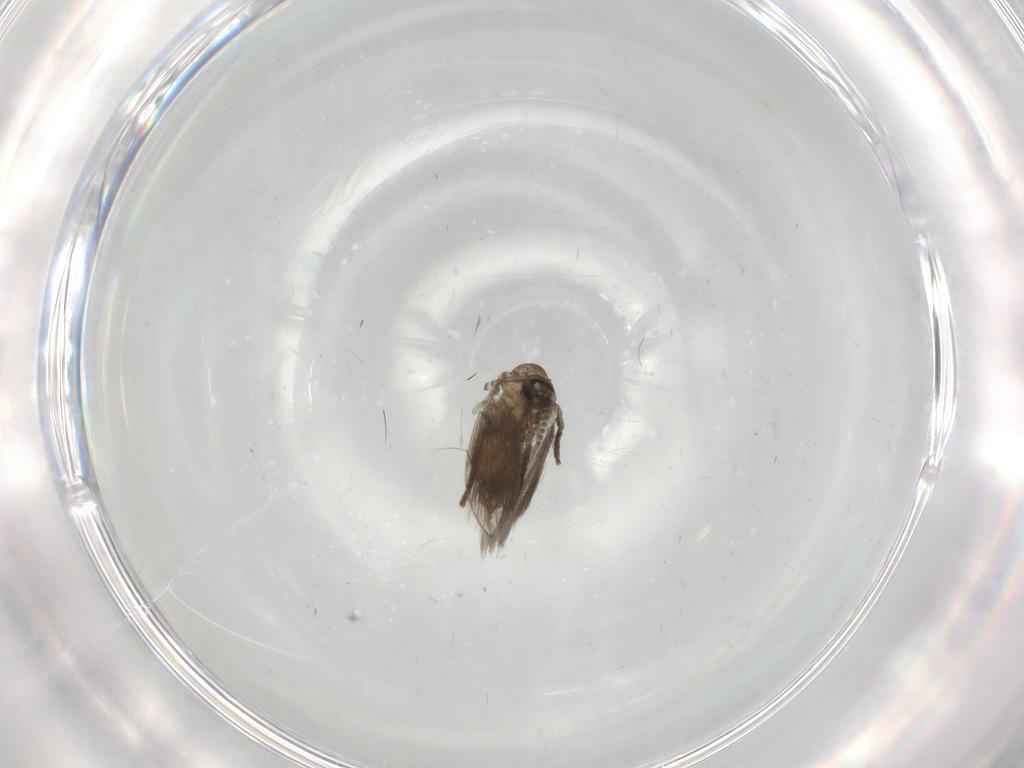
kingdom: Animalia
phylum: Arthropoda
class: Insecta
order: Diptera
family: Psychodidae
